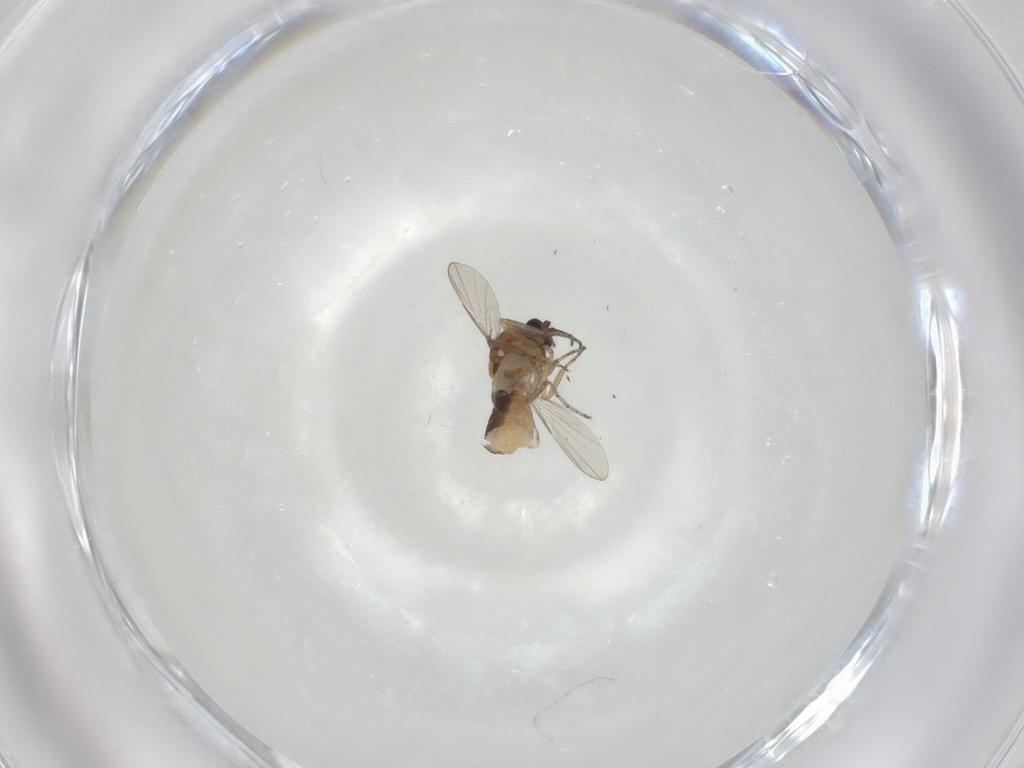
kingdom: Animalia
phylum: Arthropoda
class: Insecta
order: Diptera
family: Ceratopogonidae
